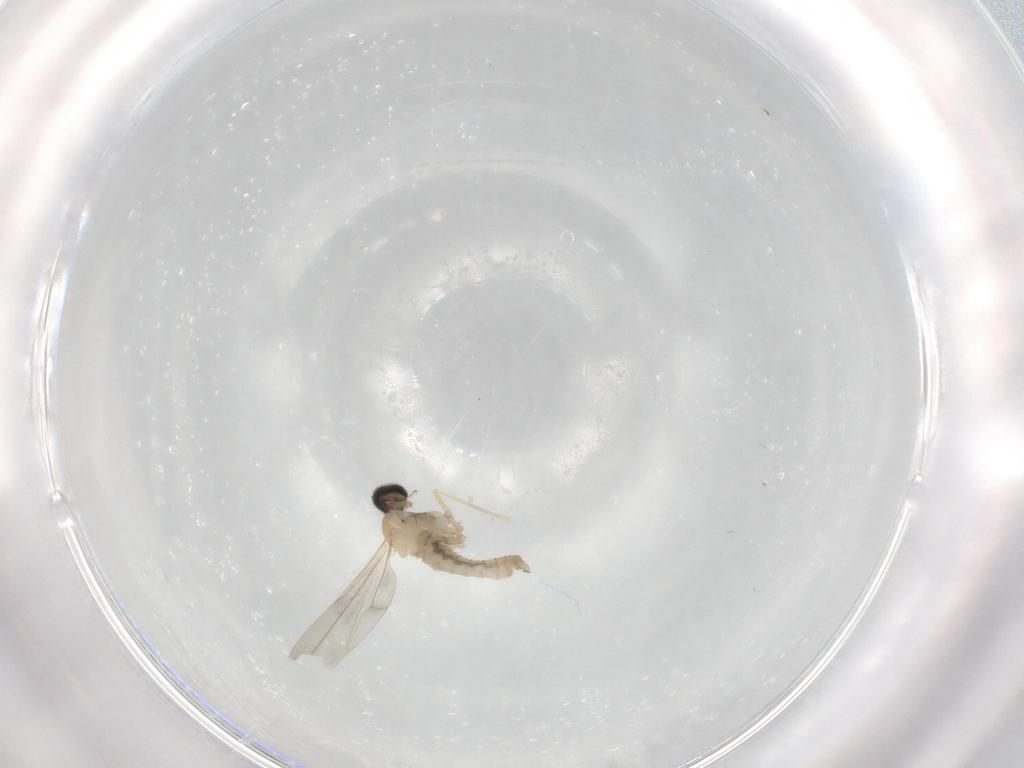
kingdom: Animalia
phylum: Arthropoda
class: Insecta
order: Diptera
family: Cecidomyiidae
